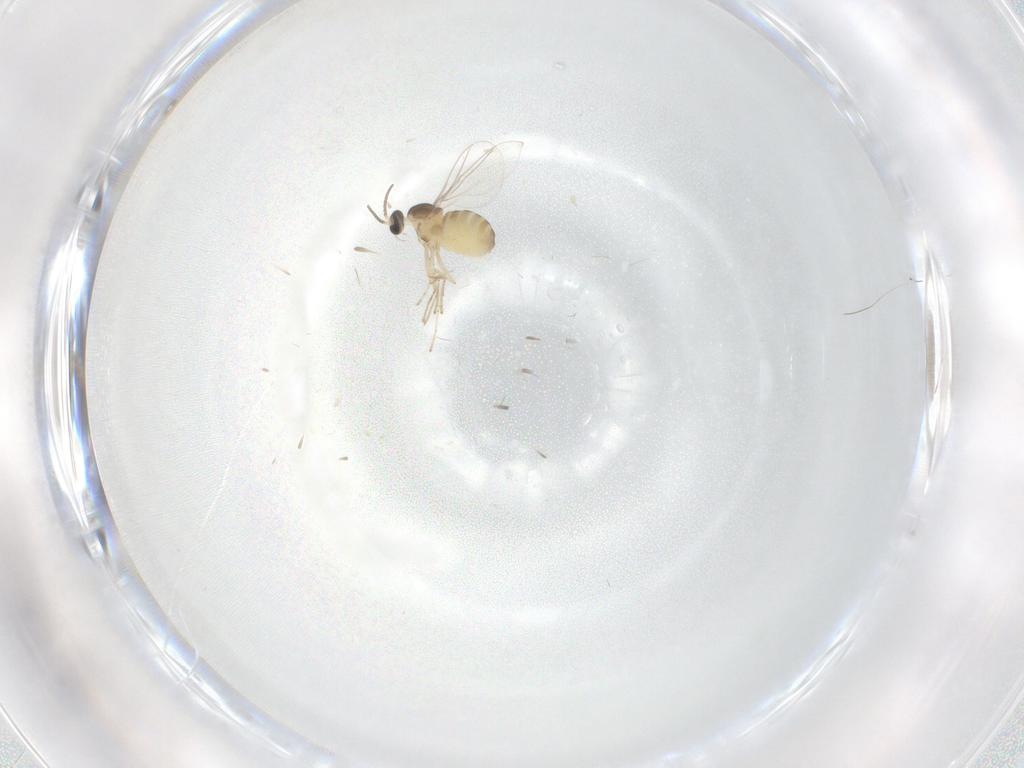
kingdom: Animalia
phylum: Arthropoda
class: Insecta
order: Diptera
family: Cecidomyiidae
